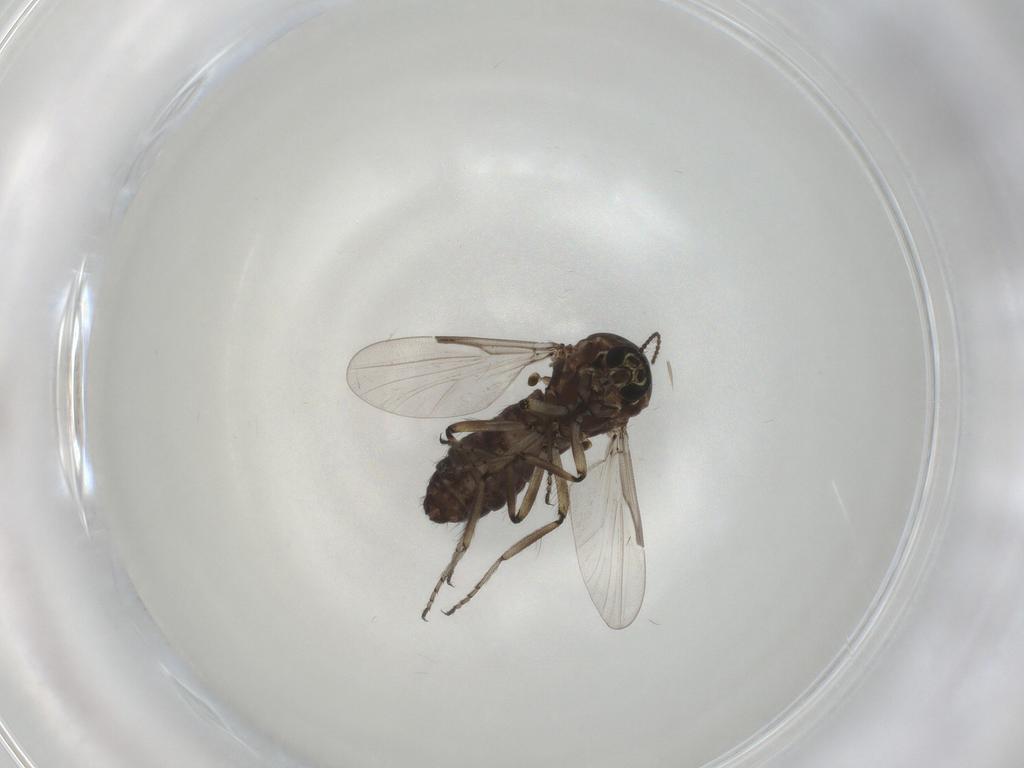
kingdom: Animalia
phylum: Arthropoda
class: Insecta
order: Diptera
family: Ceratopogonidae
